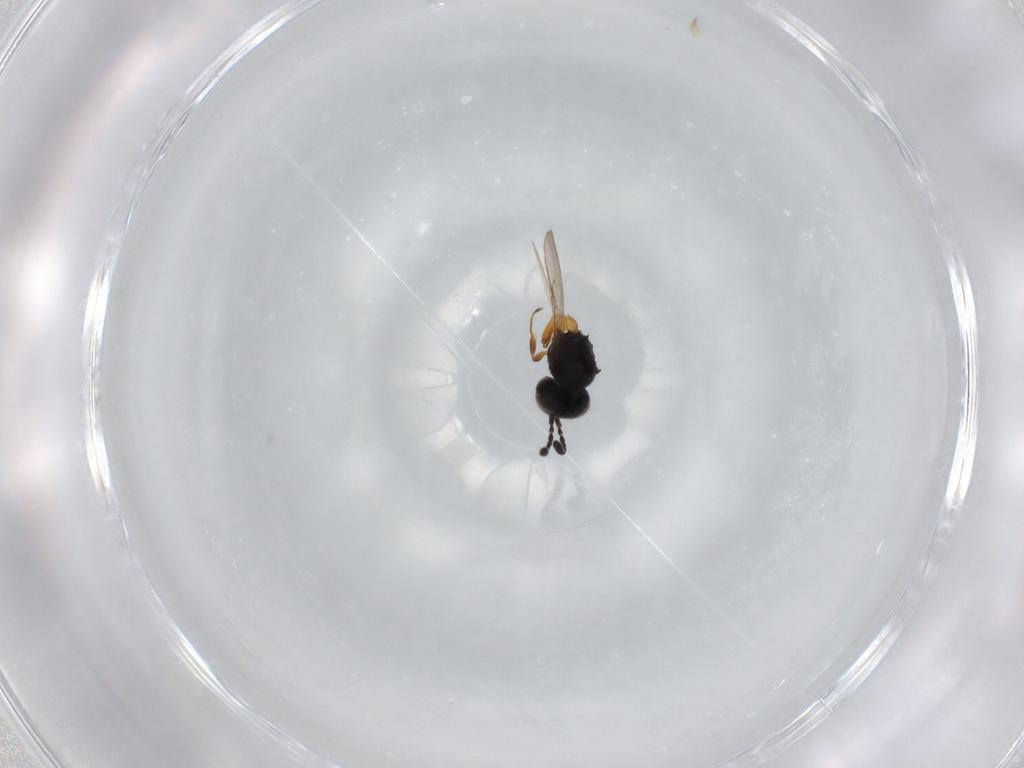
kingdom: Animalia
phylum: Arthropoda
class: Insecta
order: Hymenoptera
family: Scelionidae
